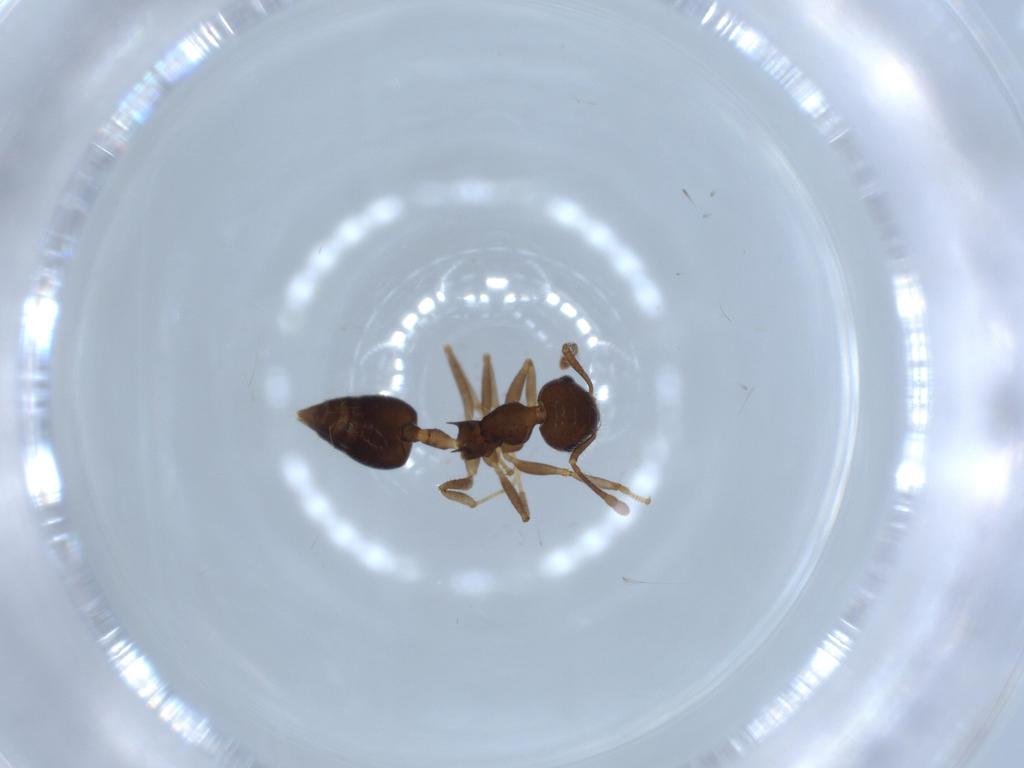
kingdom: Animalia
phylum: Arthropoda
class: Insecta
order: Hymenoptera
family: Formicidae
